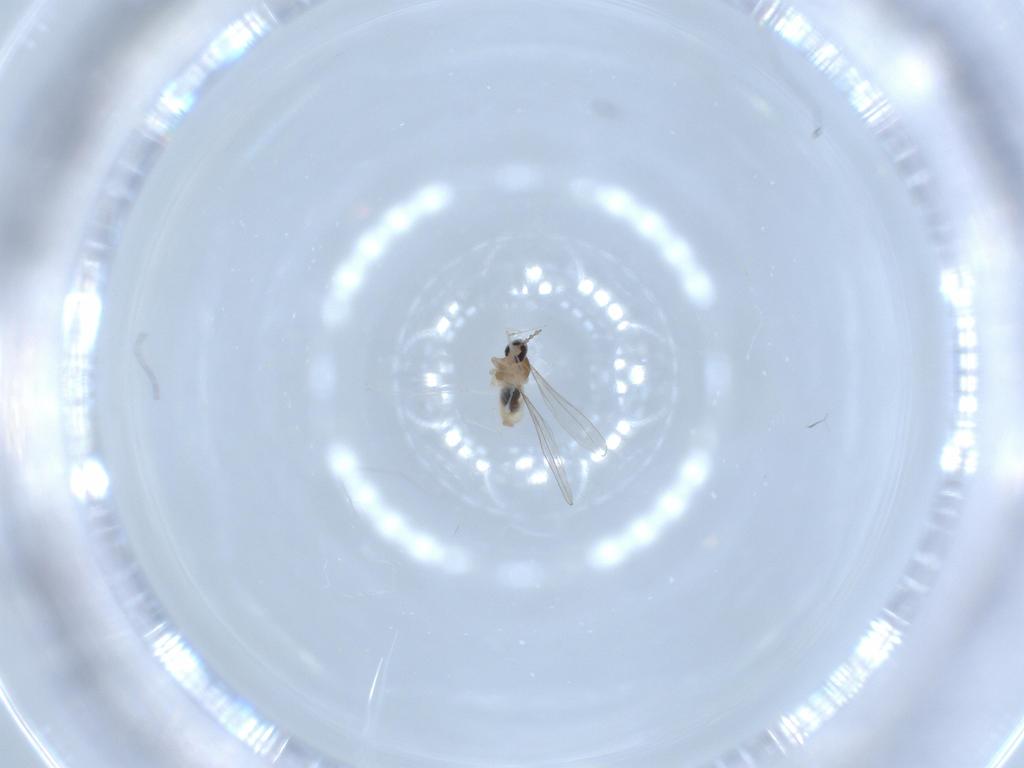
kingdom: Animalia
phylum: Arthropoda
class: Insecta
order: Diptera
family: Cecidomyiidae
